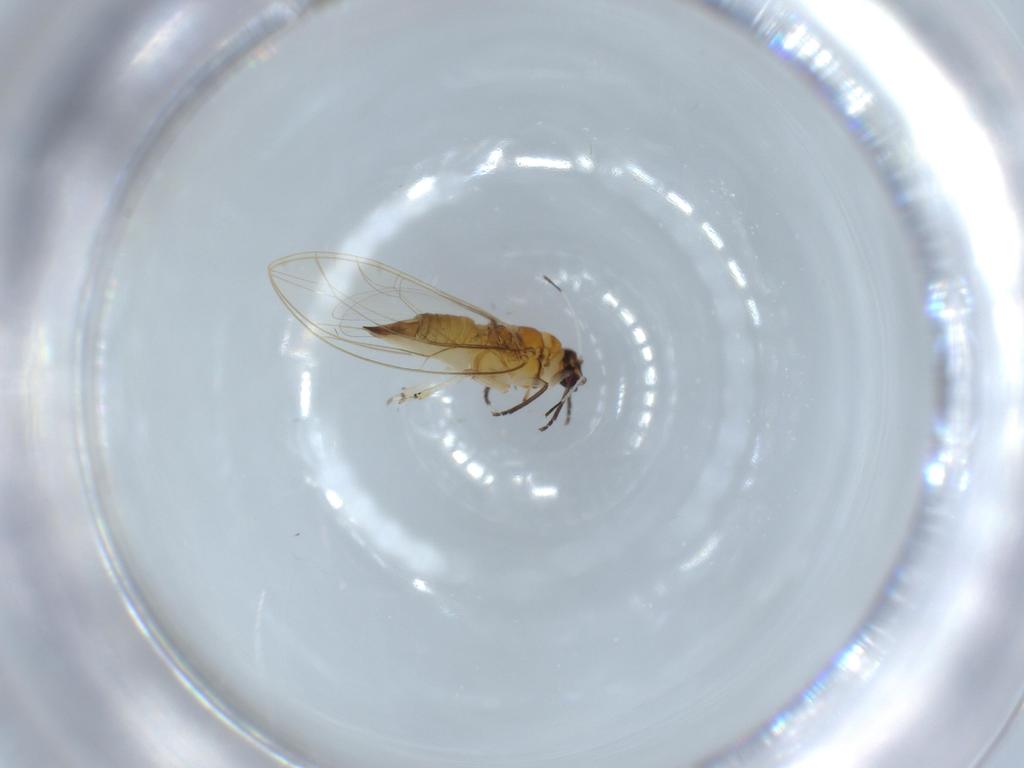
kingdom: Animalia
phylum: Arthropoda
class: Insecta
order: Hemiptera
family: Triozidae
